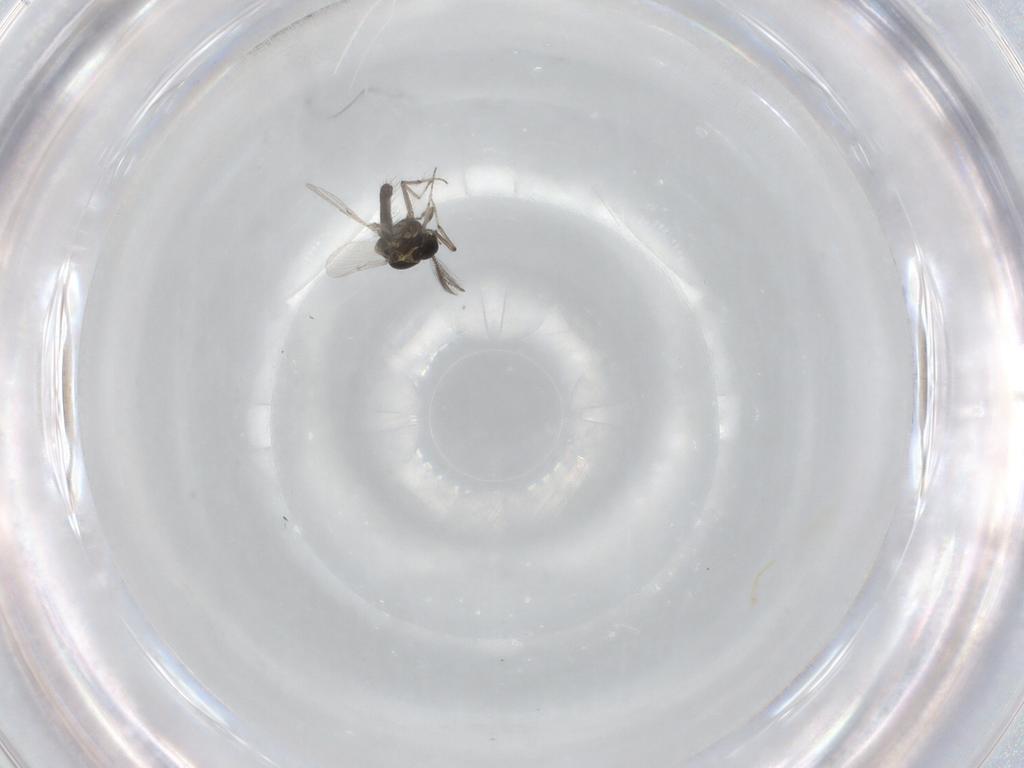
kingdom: Animalia
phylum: Arthropoda
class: Insecta
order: Diptera
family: Ceratopogonidae
